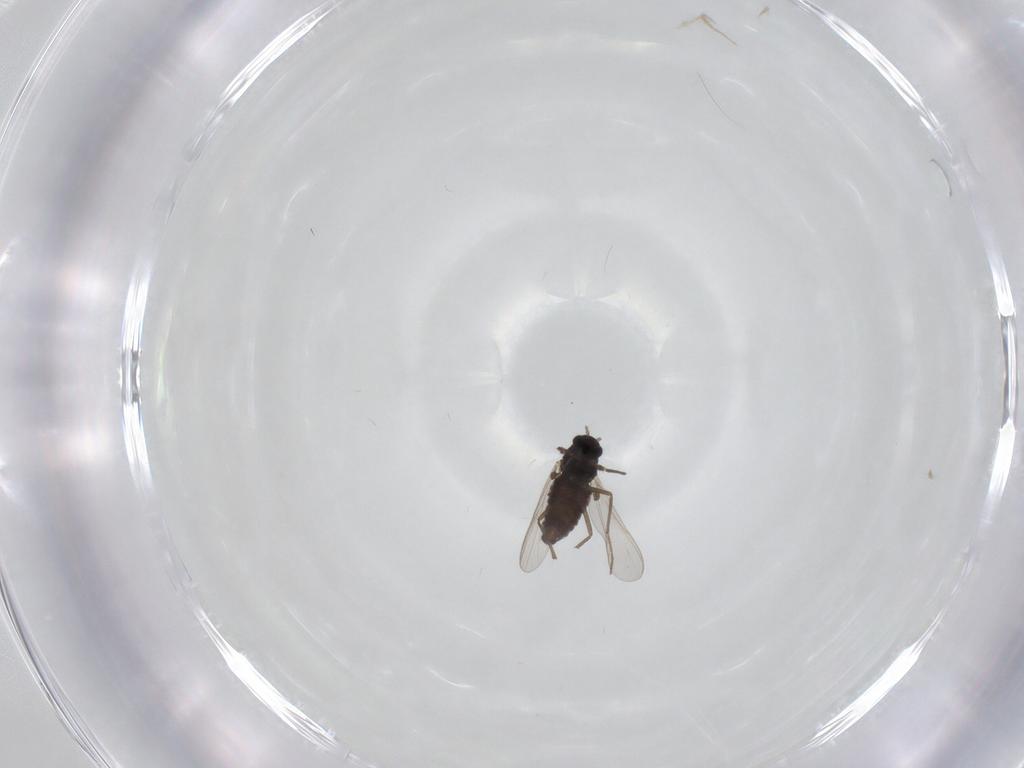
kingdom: Animalia
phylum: Arthropoda
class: Insecta
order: Diptera
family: Chironomidae
